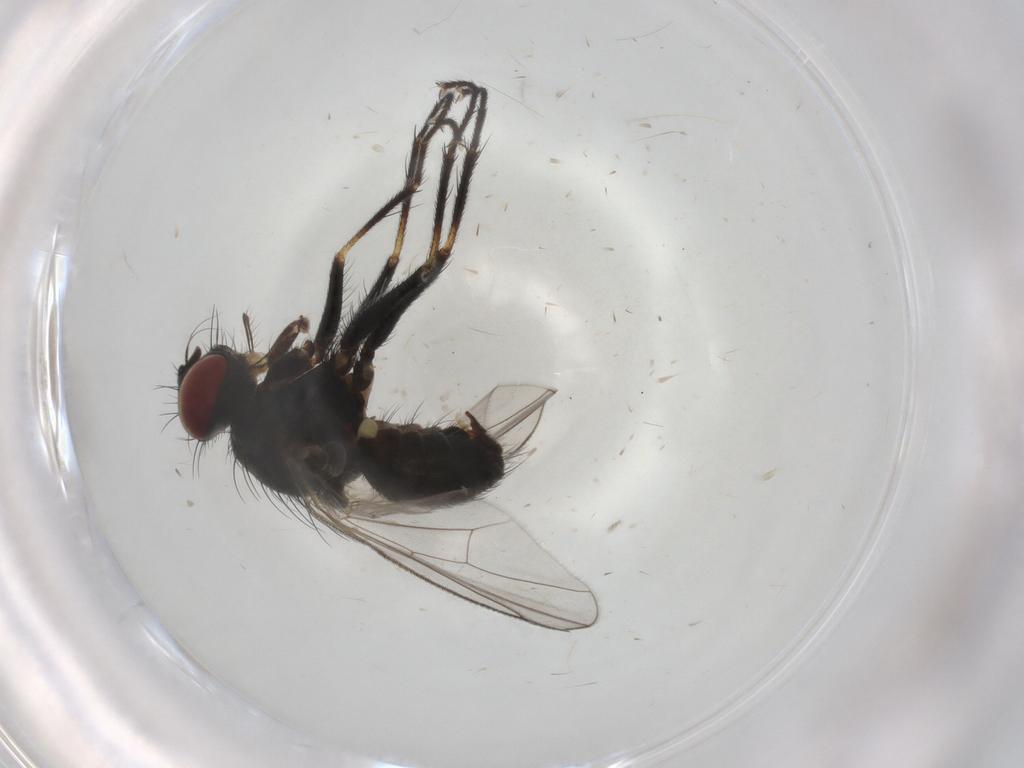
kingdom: Animalia
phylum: Arthropoda
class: Insecta
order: Diptera
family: Muscidae
